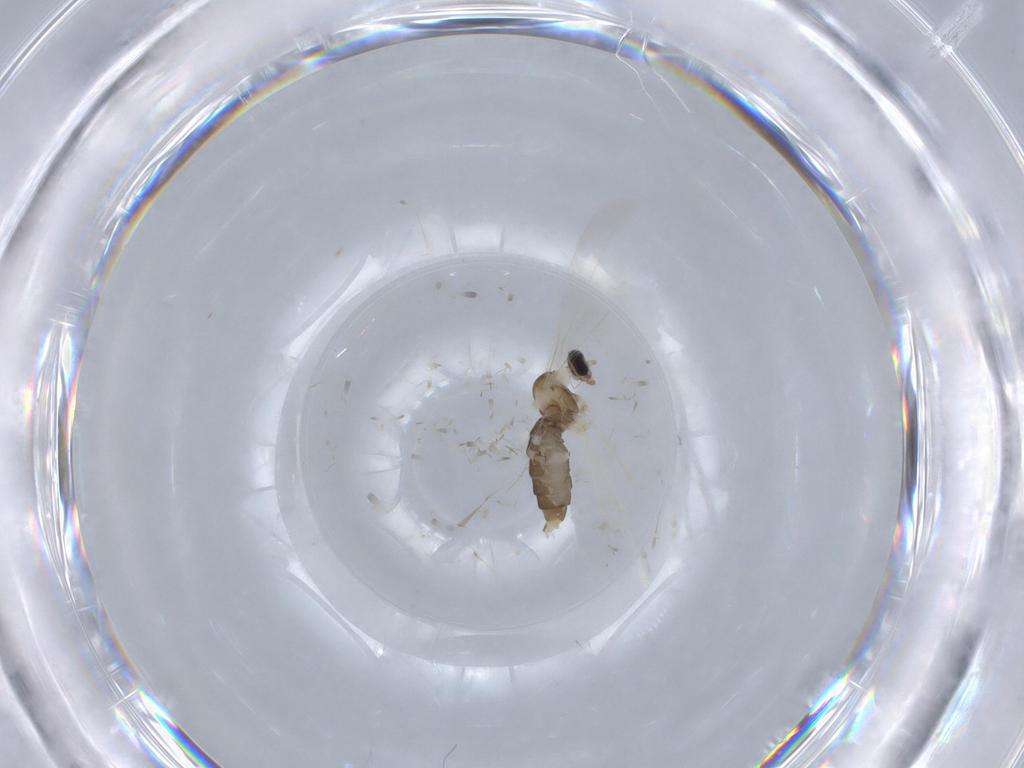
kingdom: Animalia
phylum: Arthropoda
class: Insecta
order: Diptera
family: Cecidomyiidae
